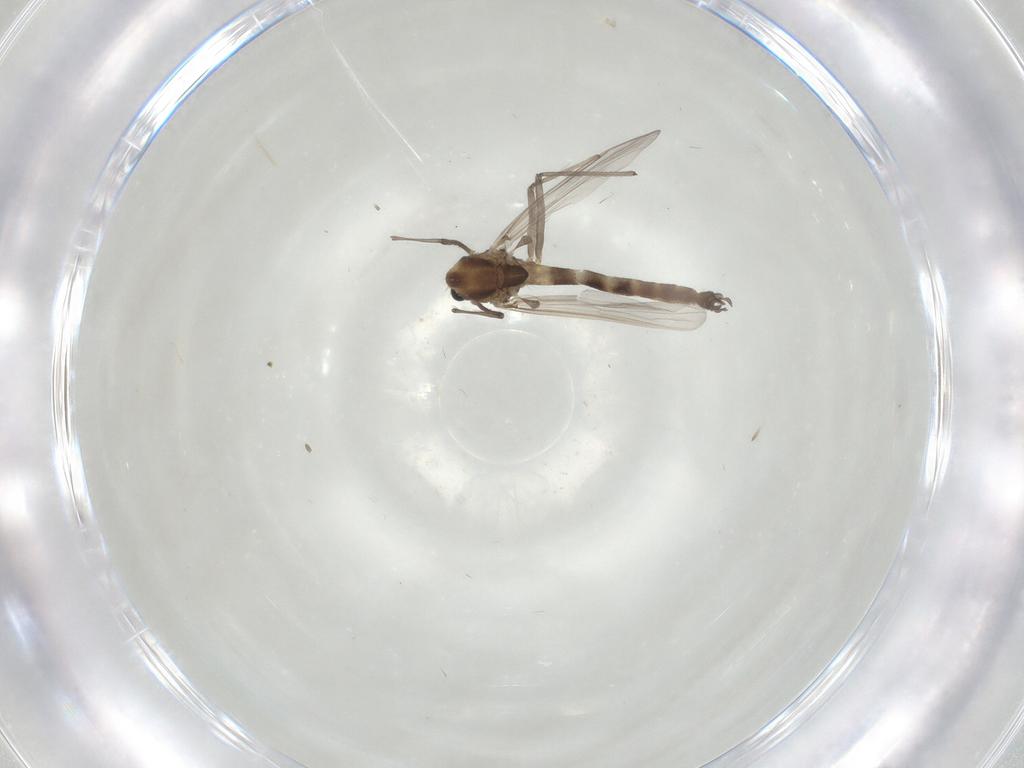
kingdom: Animalia
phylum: Arthropoda
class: Insecta
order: Diptera
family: Chironomidae
